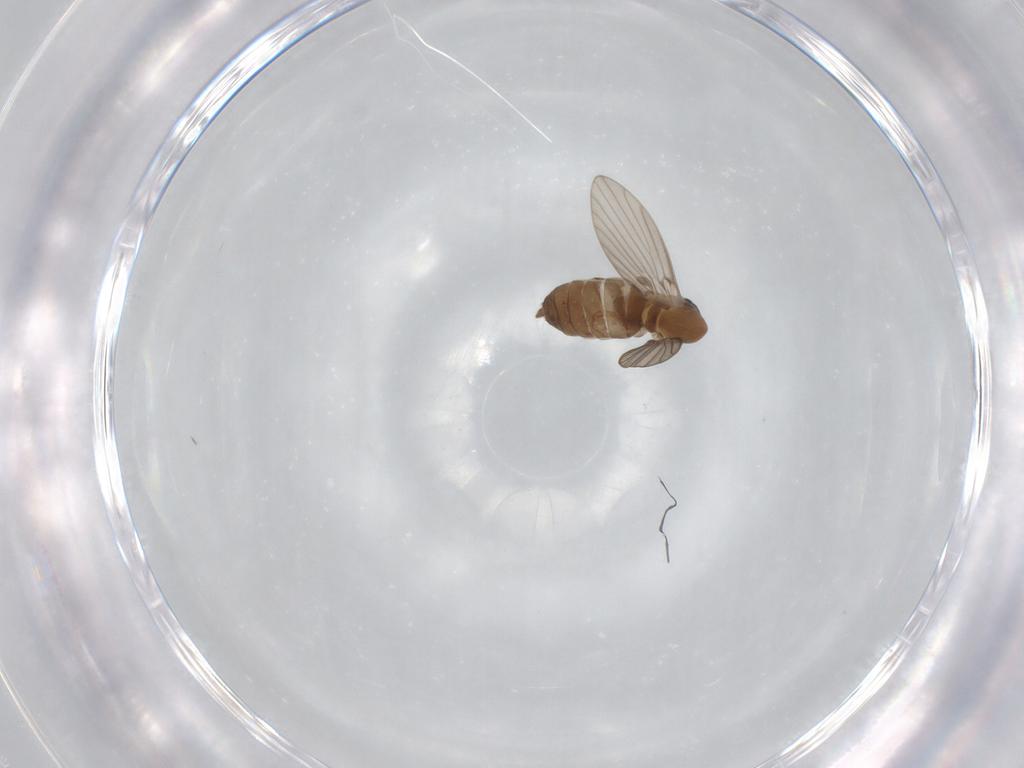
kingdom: Animalia
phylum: Arthropoda
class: Insecta
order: Diptera
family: Psychodidae
